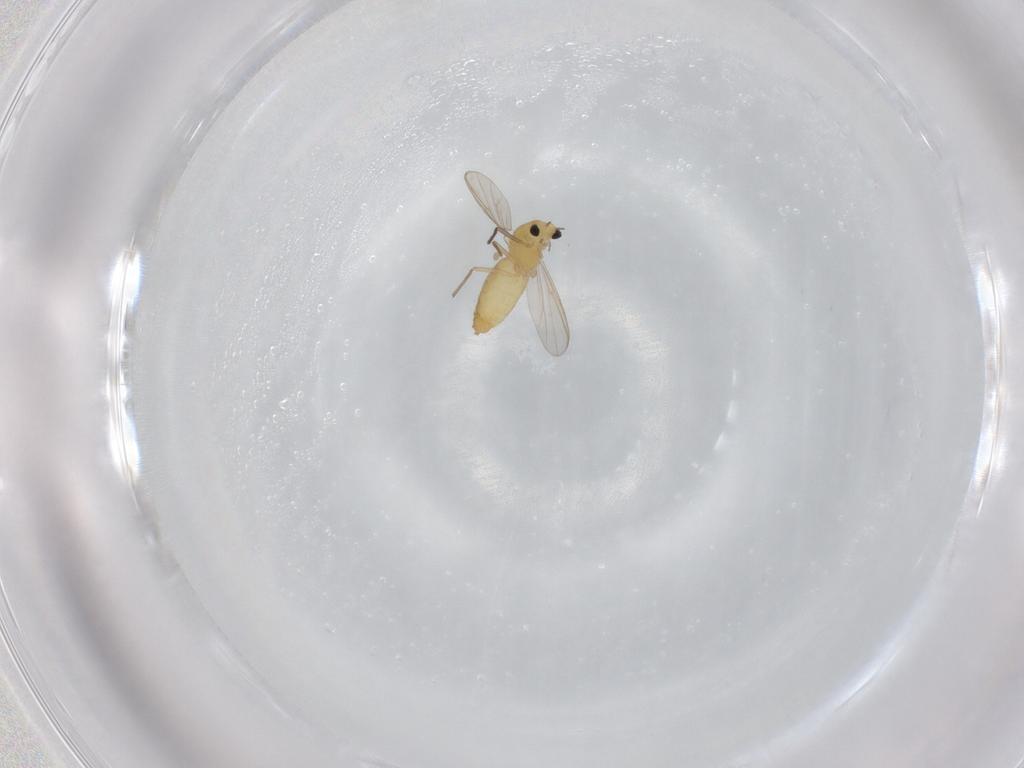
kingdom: Animalia
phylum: Arthropoda
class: Insecta
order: Diptera
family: Chironomidae
